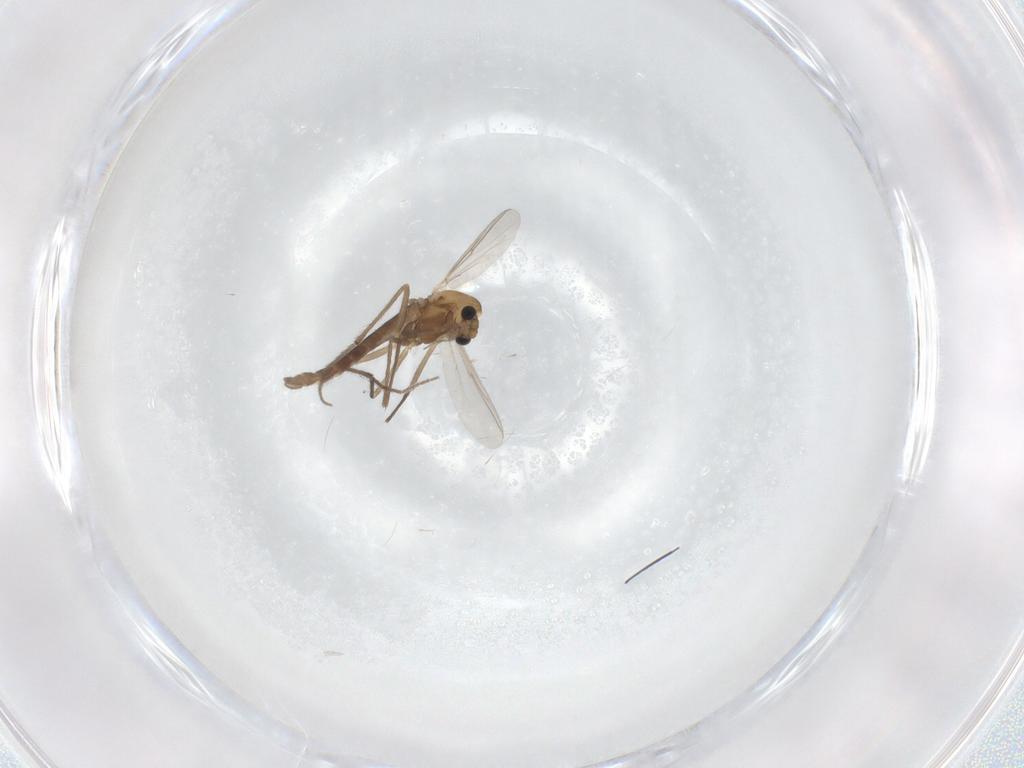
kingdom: Animalia
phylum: Arthropoda
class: Insecta
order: Diptera
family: Chironomidae
